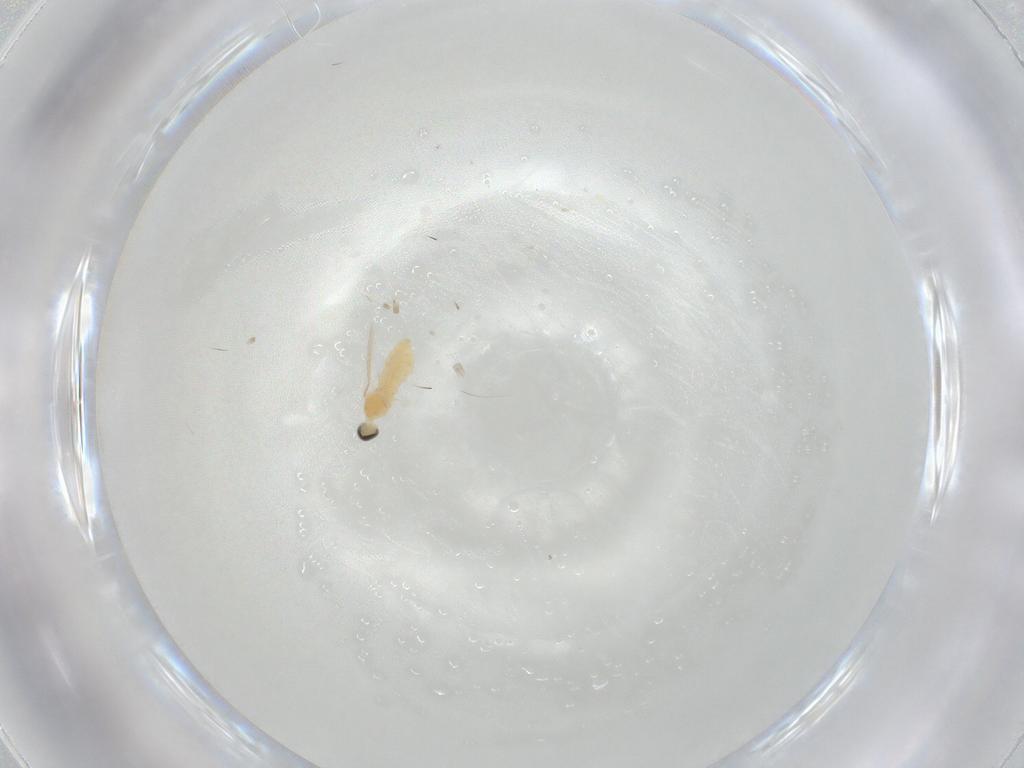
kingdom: Animalia
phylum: Arthropoda
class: Insecta
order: Diptera
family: Cecidomyiidae
